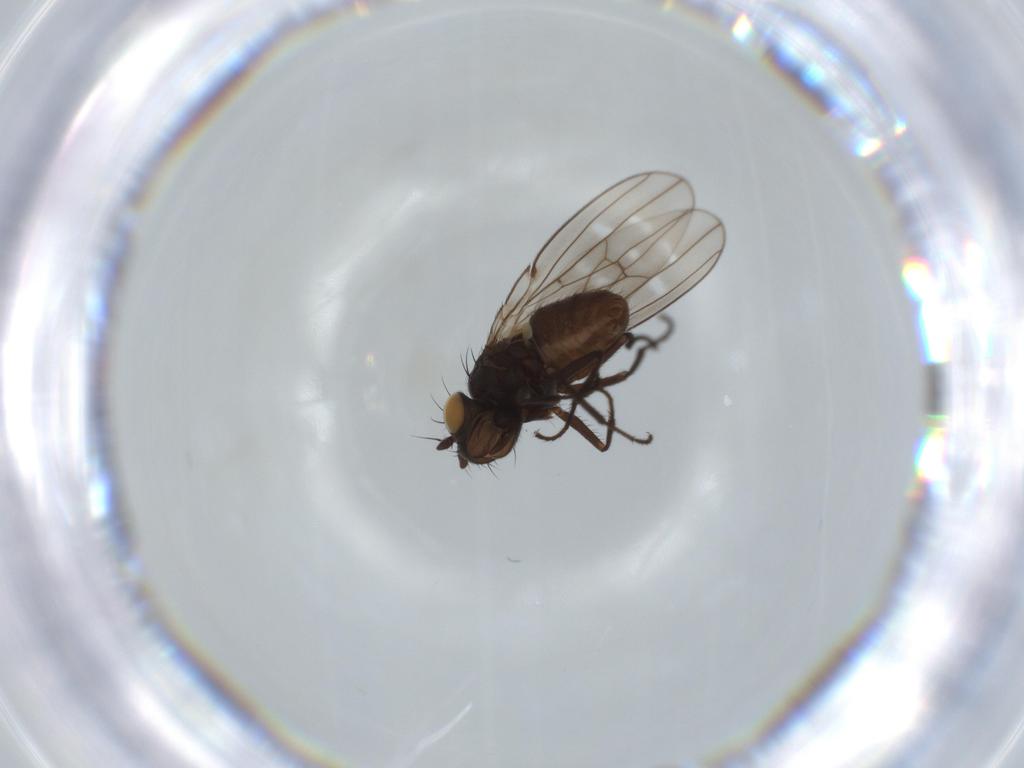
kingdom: Animalia
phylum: Arthropoda
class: Insecta
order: Diptera
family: Ephydridae
